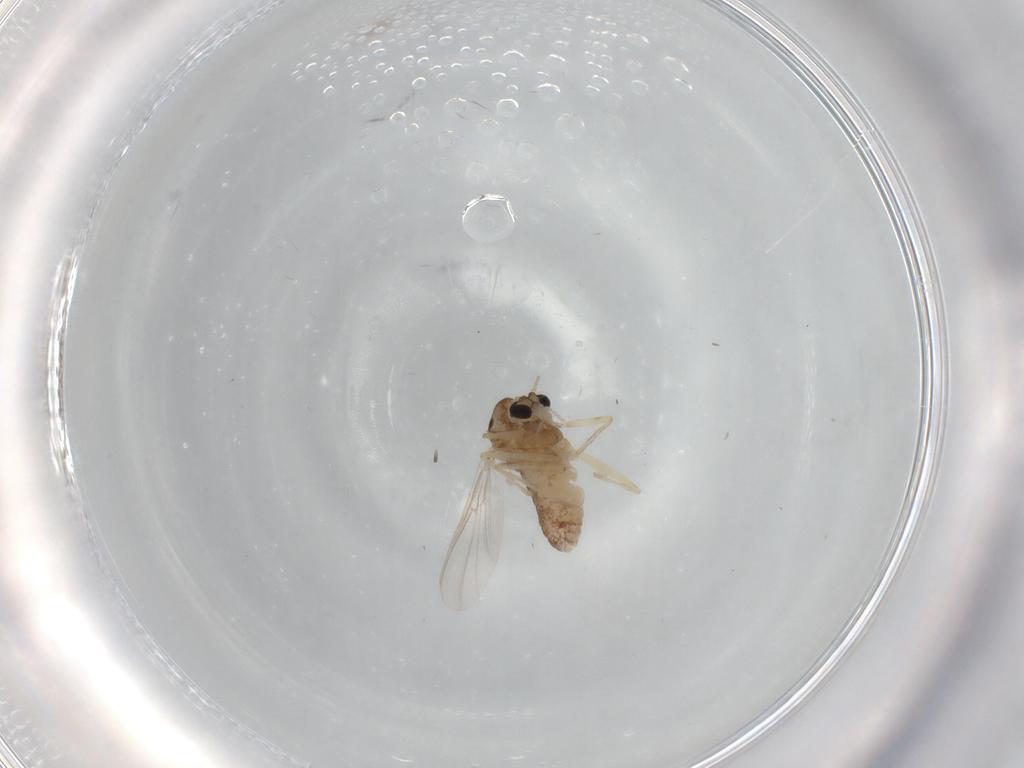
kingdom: Animalia
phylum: Arthropoda
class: Insecta
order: Diptera
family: Chironomidae
